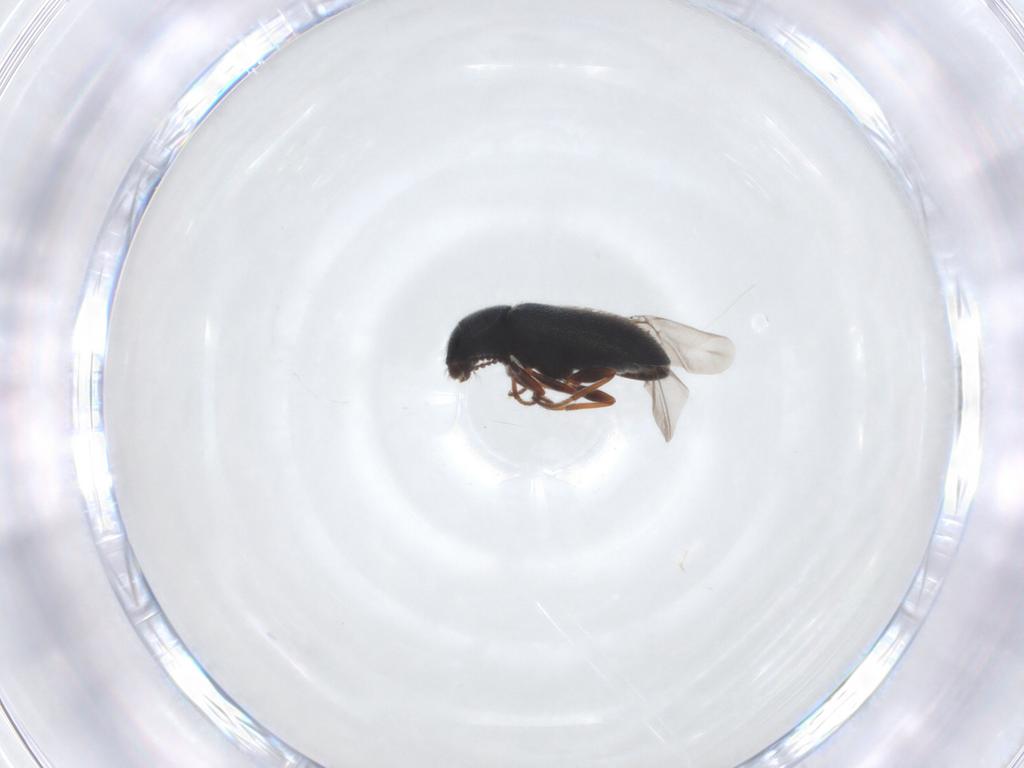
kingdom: Animalia
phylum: Arthropoda
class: Insecta
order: Coleoptera
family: Melyridae
